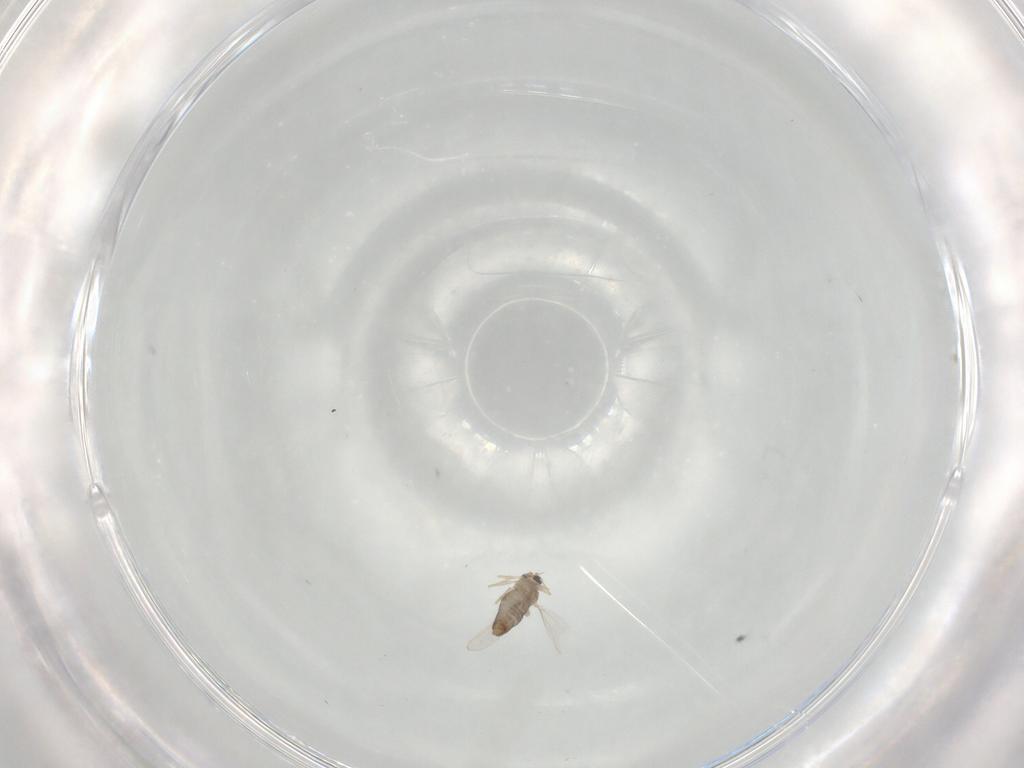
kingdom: Animalia
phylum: Arthropoda
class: Insecta
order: Diptera
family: Chironomidae
